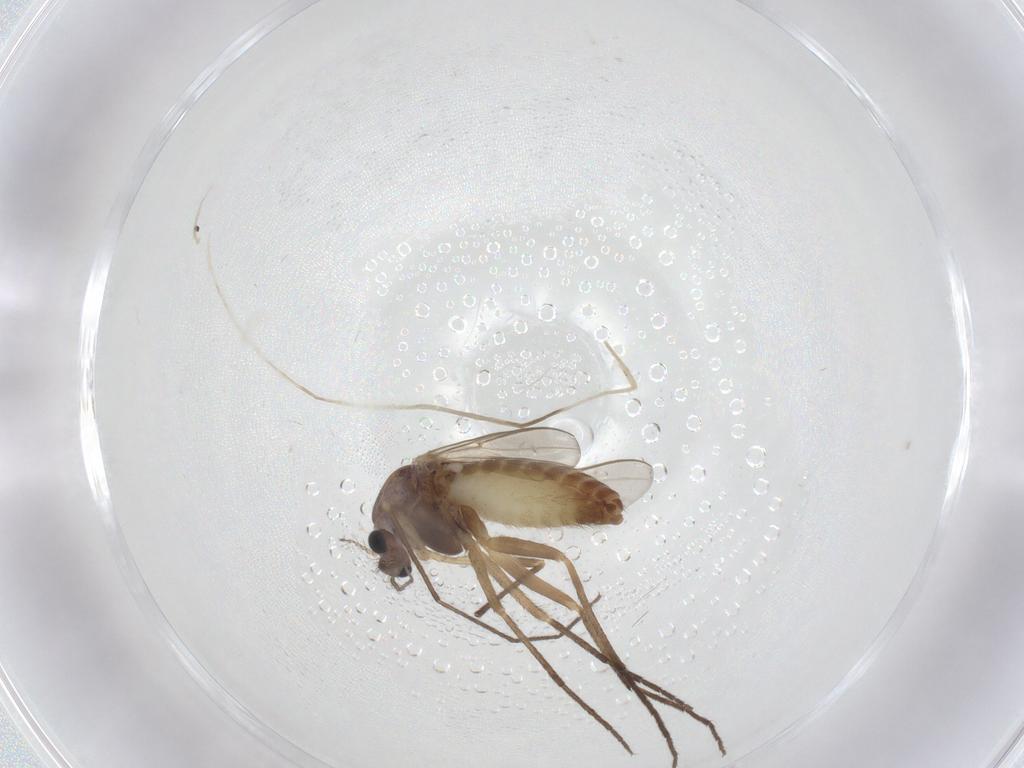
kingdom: Animalia
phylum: Arthropoda
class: Insecta
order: Diptera
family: Chironomidae
